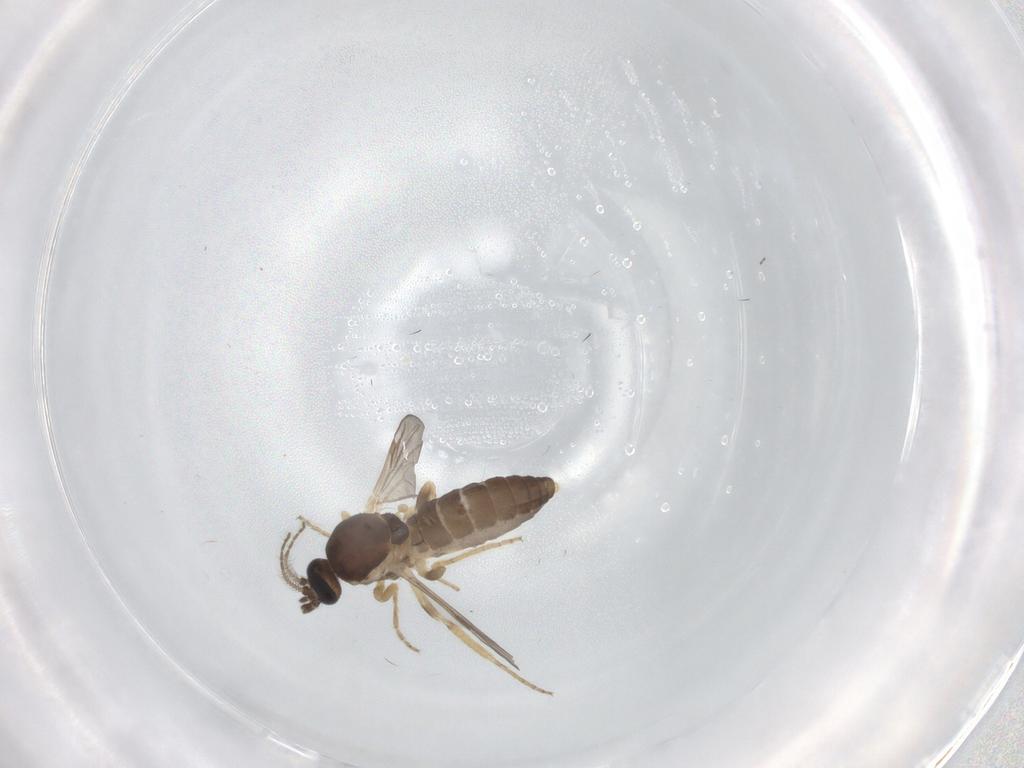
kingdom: Animalia
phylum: Arthropoda
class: Insecta
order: Diptera
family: Ceratopogonidae
